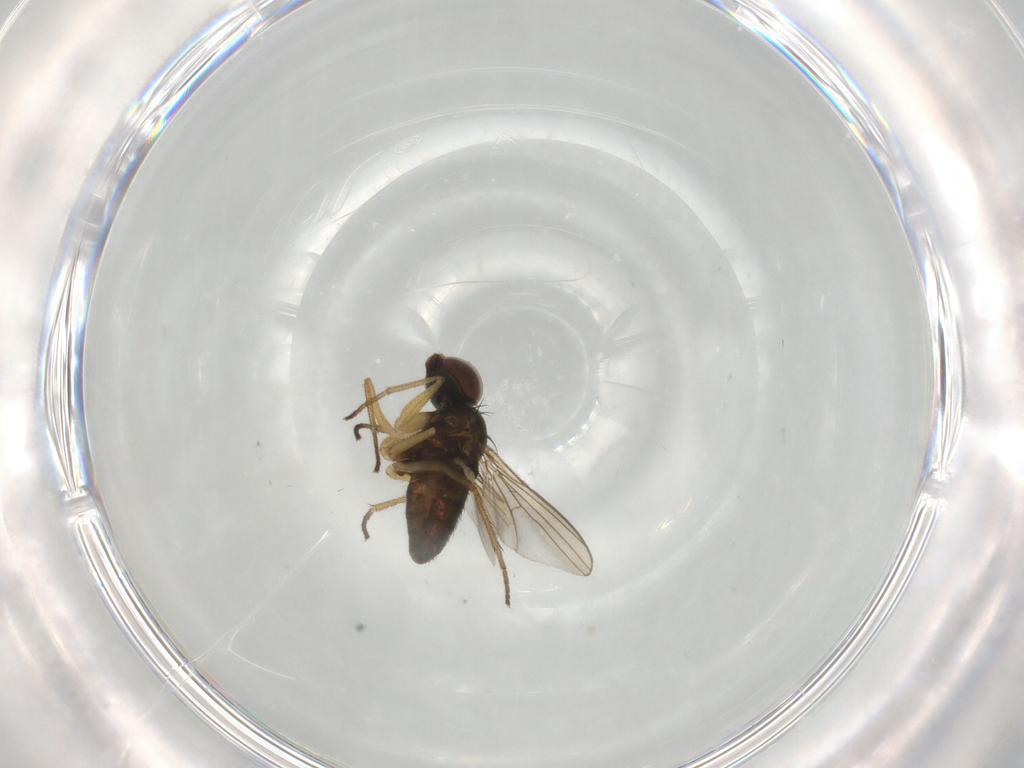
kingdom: Animalia
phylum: Arthropoda
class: Insecta
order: Diptera
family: Dolichopodidae
